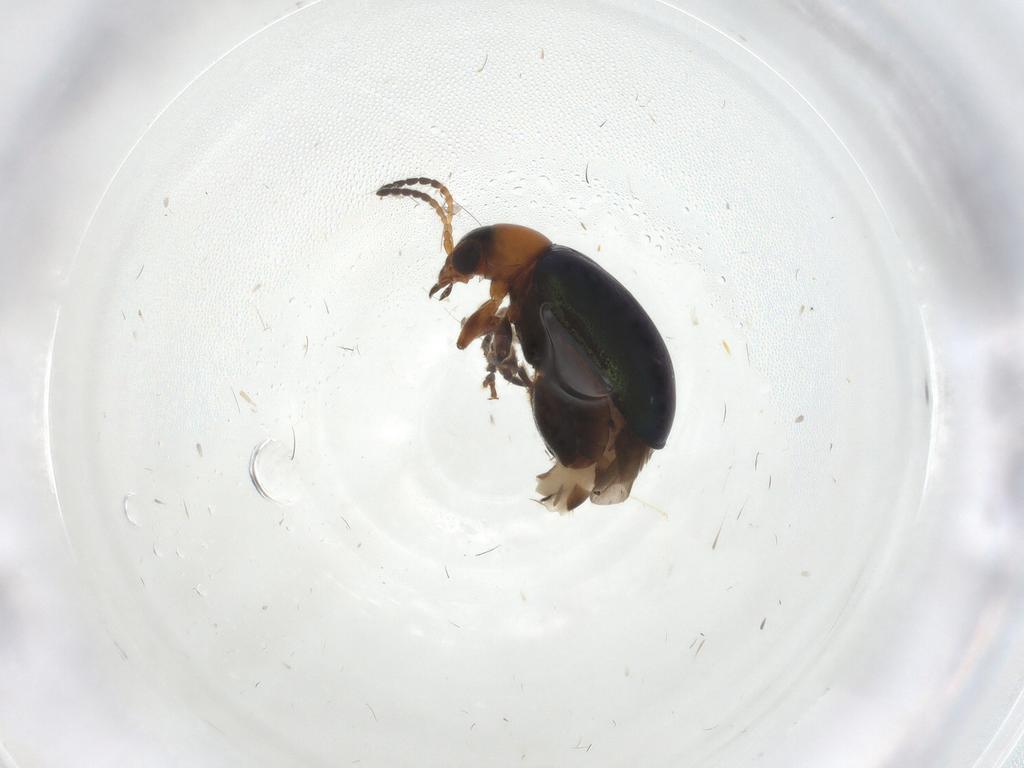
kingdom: Animalia
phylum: Arthropoda
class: Insecta
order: Coleoptera
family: Chrysomelidae
